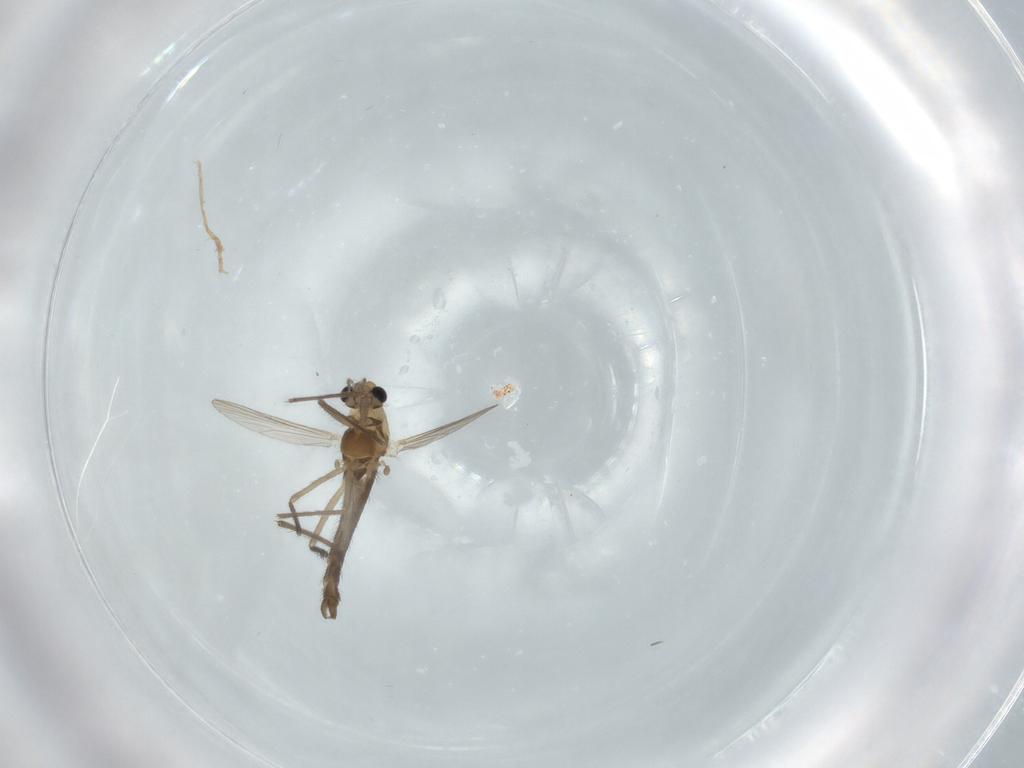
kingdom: Animalia
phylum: Arthropoda
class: Insecta
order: Diptera
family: Chironomidae
